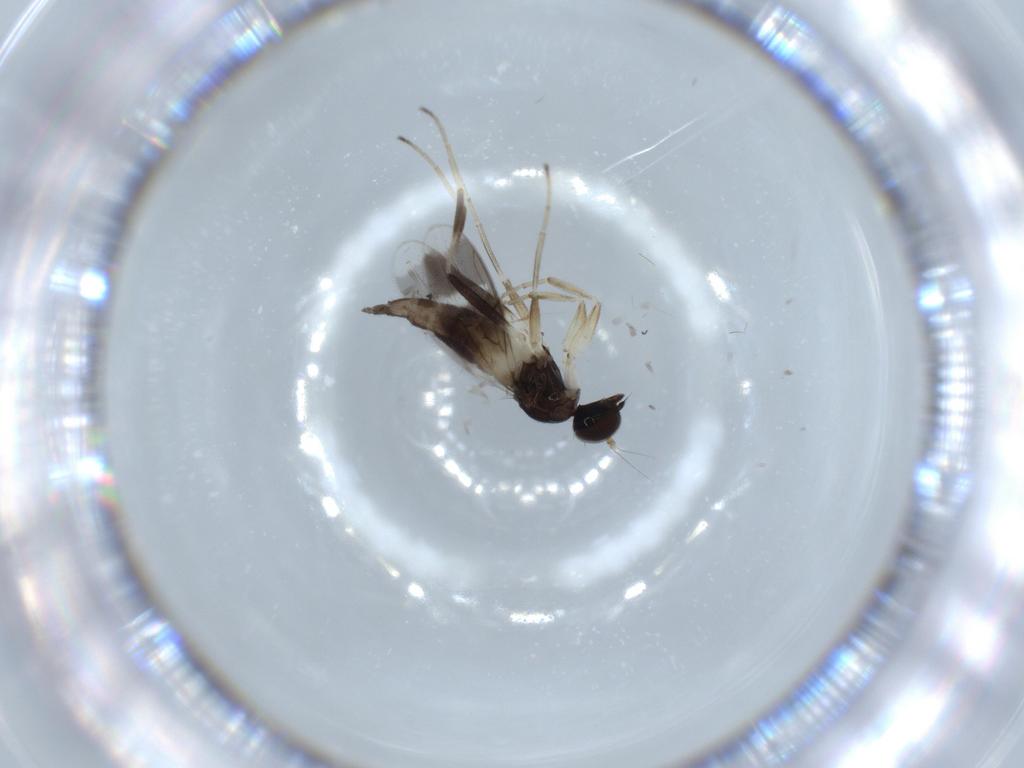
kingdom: Animalia
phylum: Arthropoda
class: Insecta
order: Diptera
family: Hybotidae
